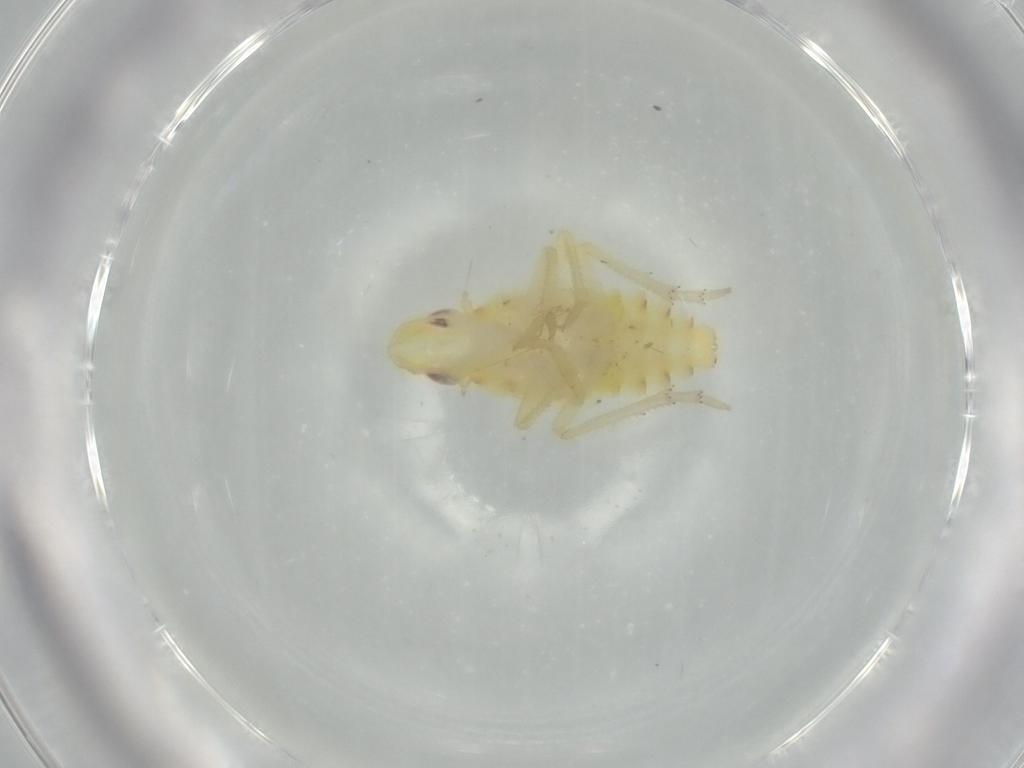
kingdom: Animalia
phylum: Arthropoda
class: Insecta
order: Hemiptera
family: Tropiduchidae
